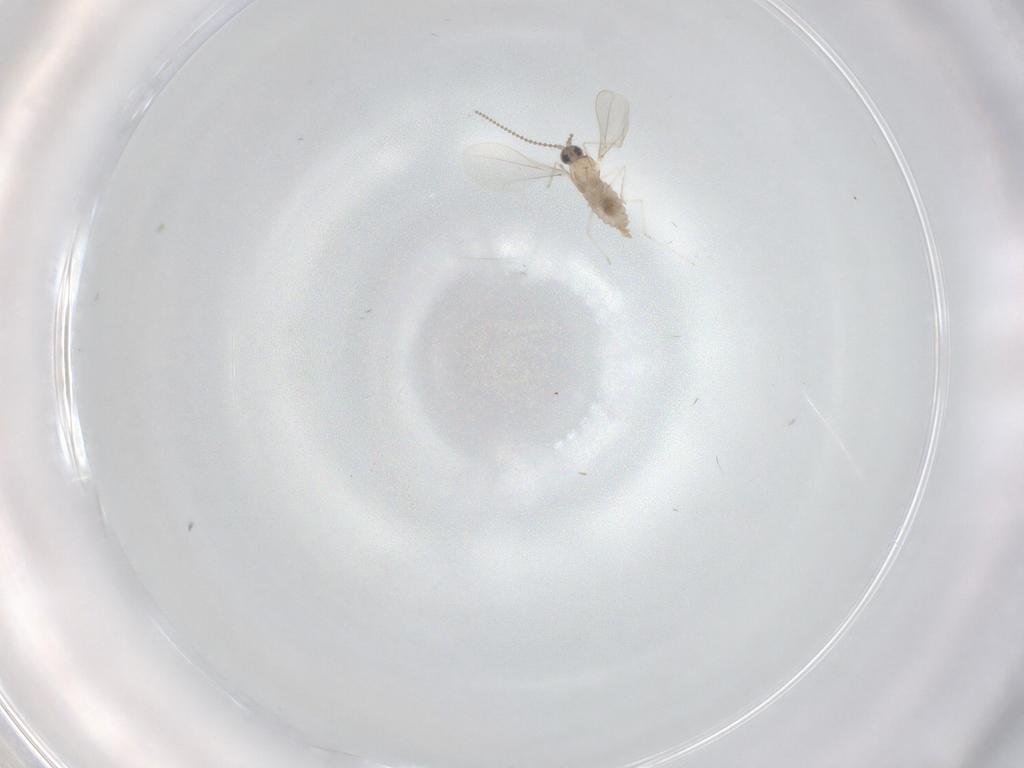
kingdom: Animalia
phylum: Arthropoda
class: Insecta
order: Diptera
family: Cecidomyiidae
